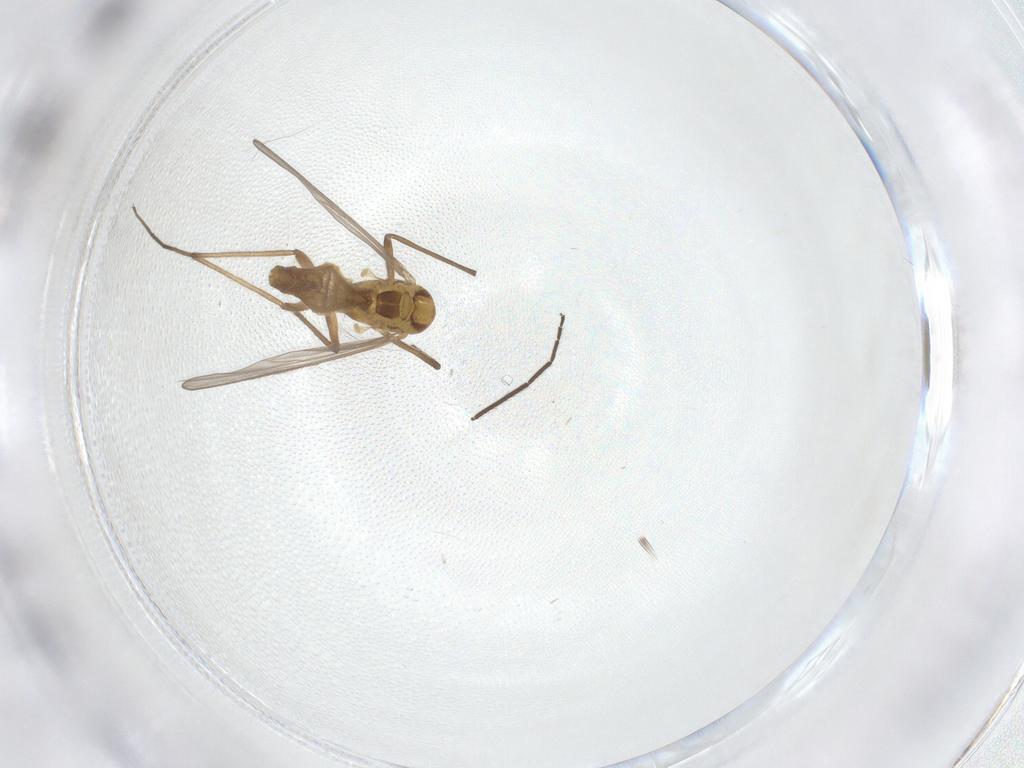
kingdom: Animalia
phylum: Arthropoda
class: Insecta
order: Diptera
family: Chironomidae
